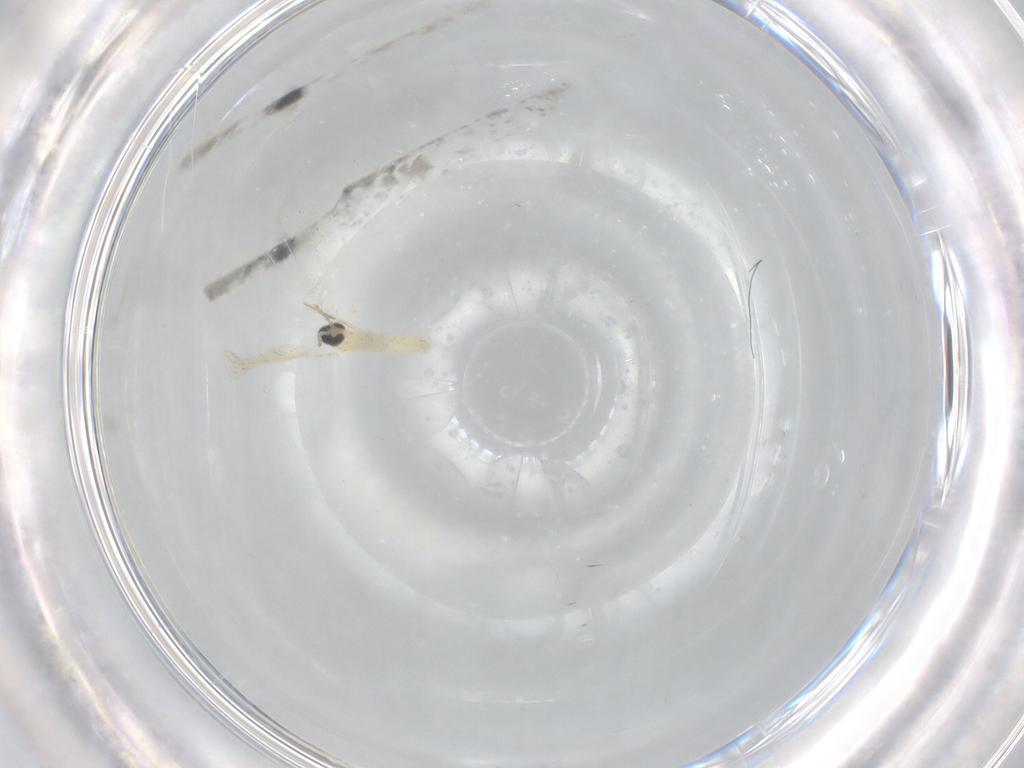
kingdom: Animalia
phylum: Arthropoda
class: Insecta
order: Diptera
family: Cecidomyiidae
